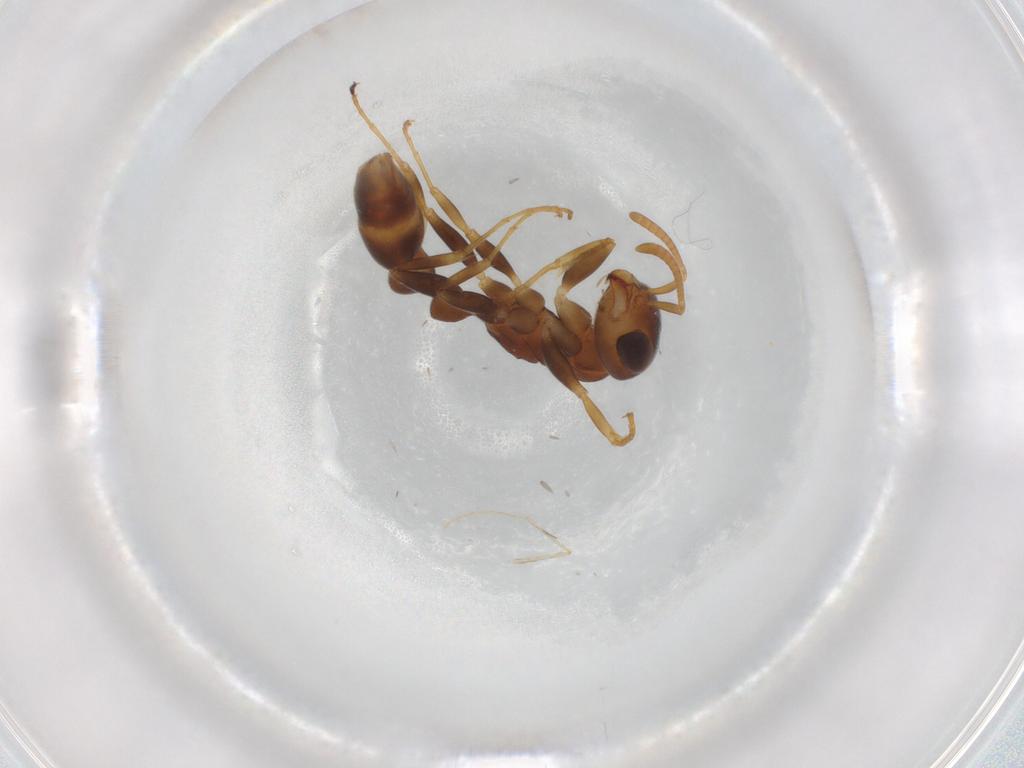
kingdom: Animalia
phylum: Arthropoda
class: Insecta
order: Hymenoptera
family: Formicidae
